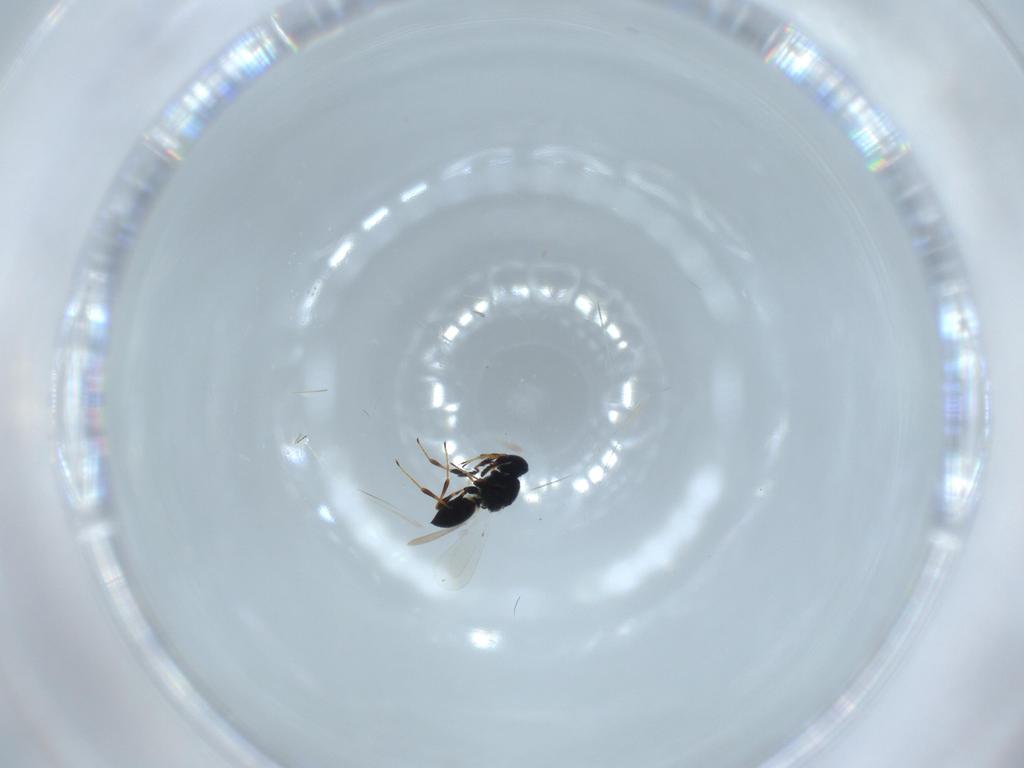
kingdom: Animalia
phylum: Arthropoda
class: Insecta
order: Hymenoptera
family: Platygastridae
